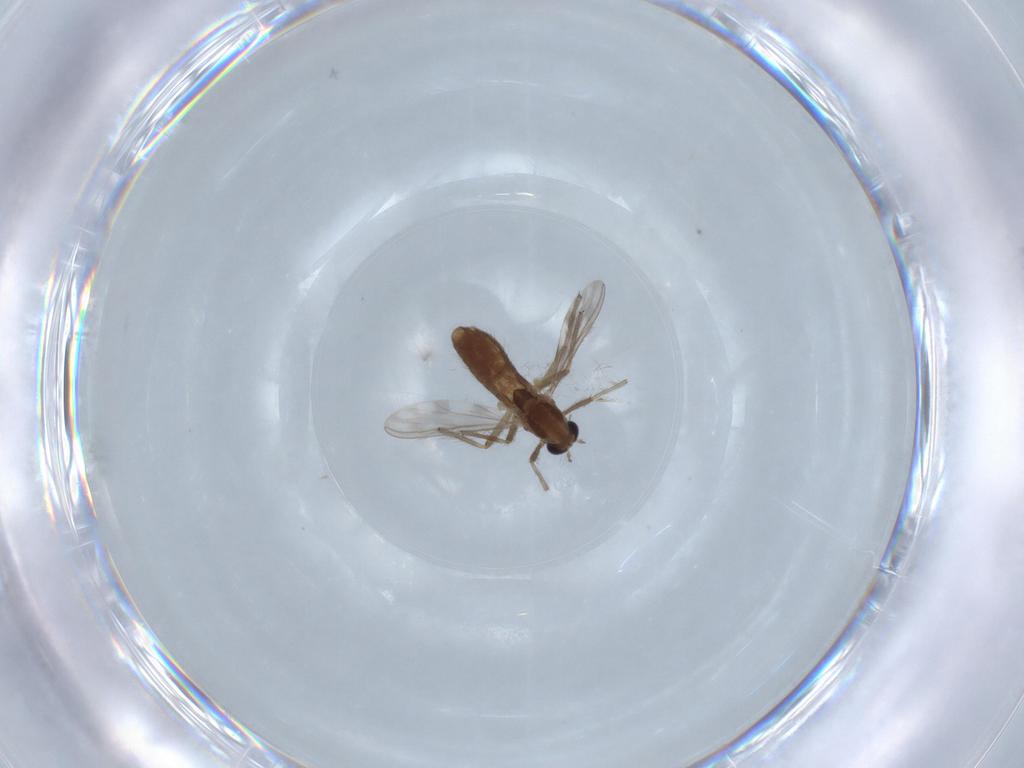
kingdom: Animalia
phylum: Arthropoda
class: Insecta
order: Diptera
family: Chironomidae
